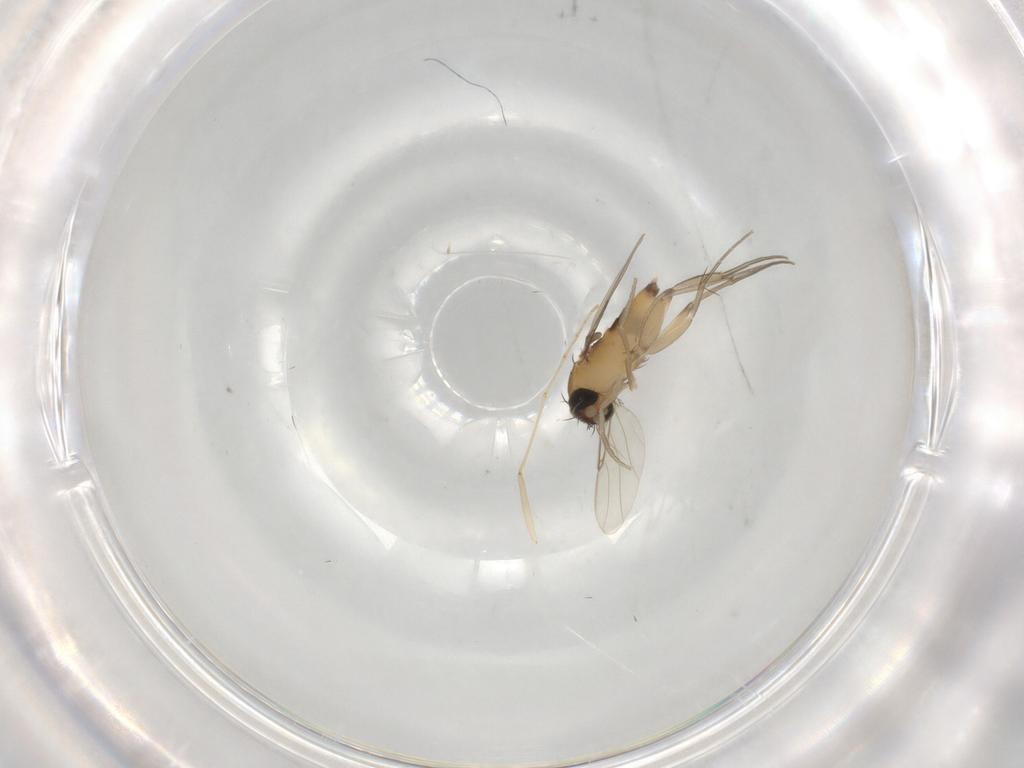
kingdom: Animalia
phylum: Arthropoda
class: Insecta
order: Diptera
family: Phoridae
